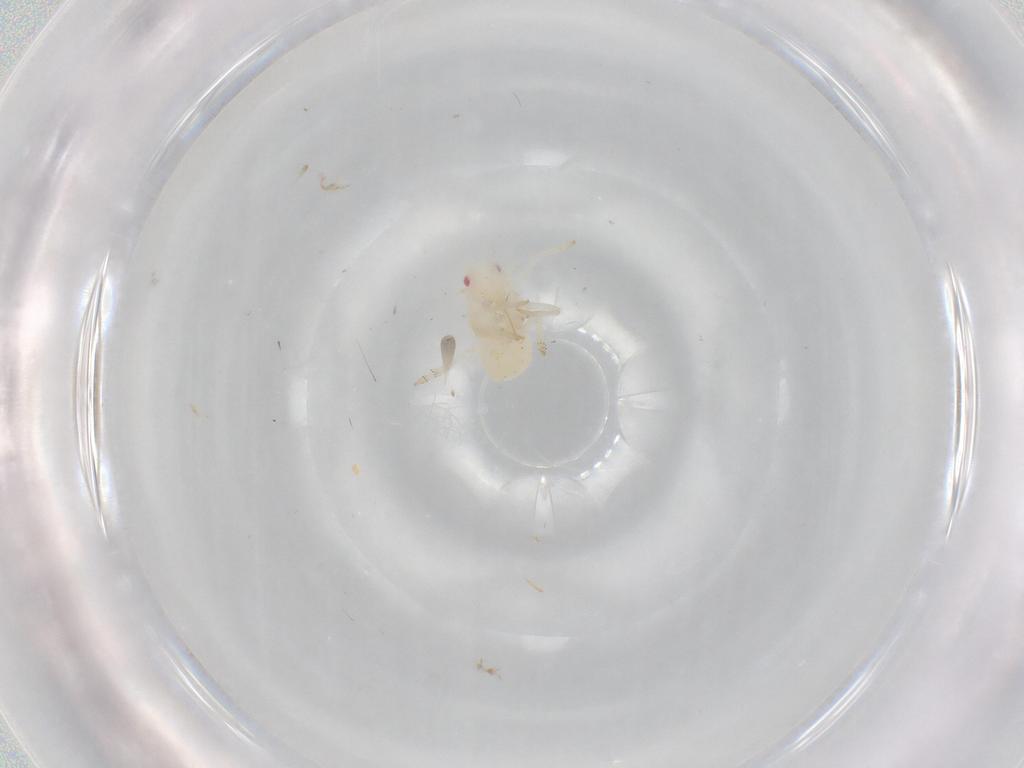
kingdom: Animalia
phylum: Arthropoda
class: Insecta
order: Hemiptera
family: Flatidae
